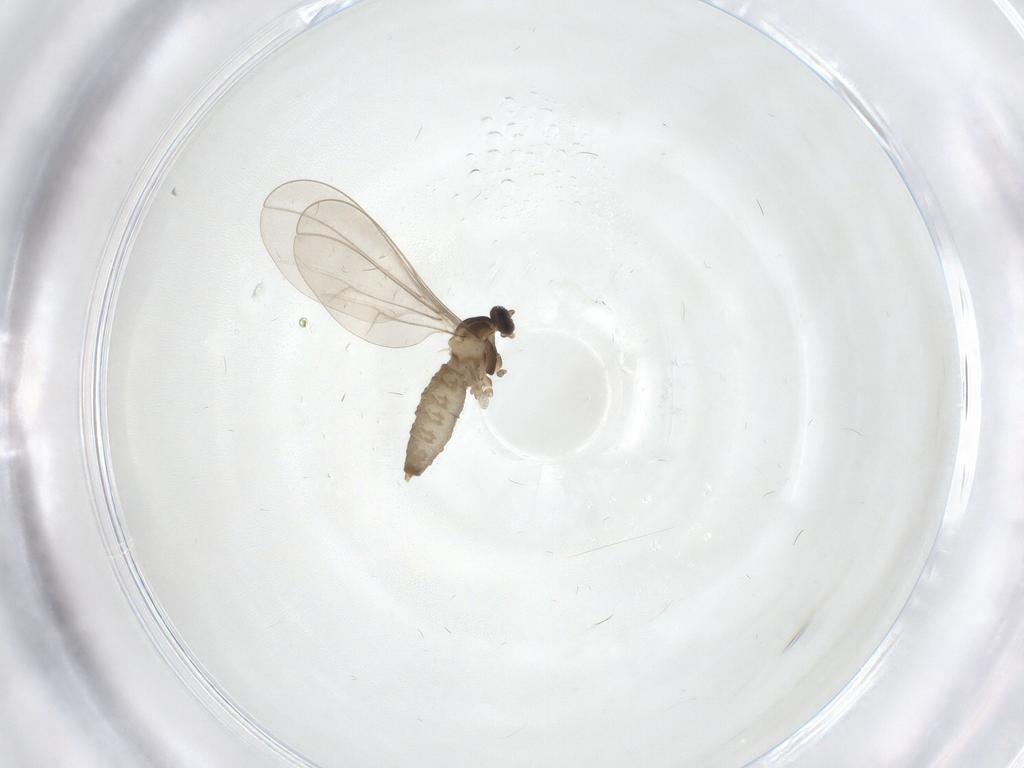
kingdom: Animalia
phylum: Arthropoda
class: Insecta
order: Diptera
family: Cecidomyiidae
